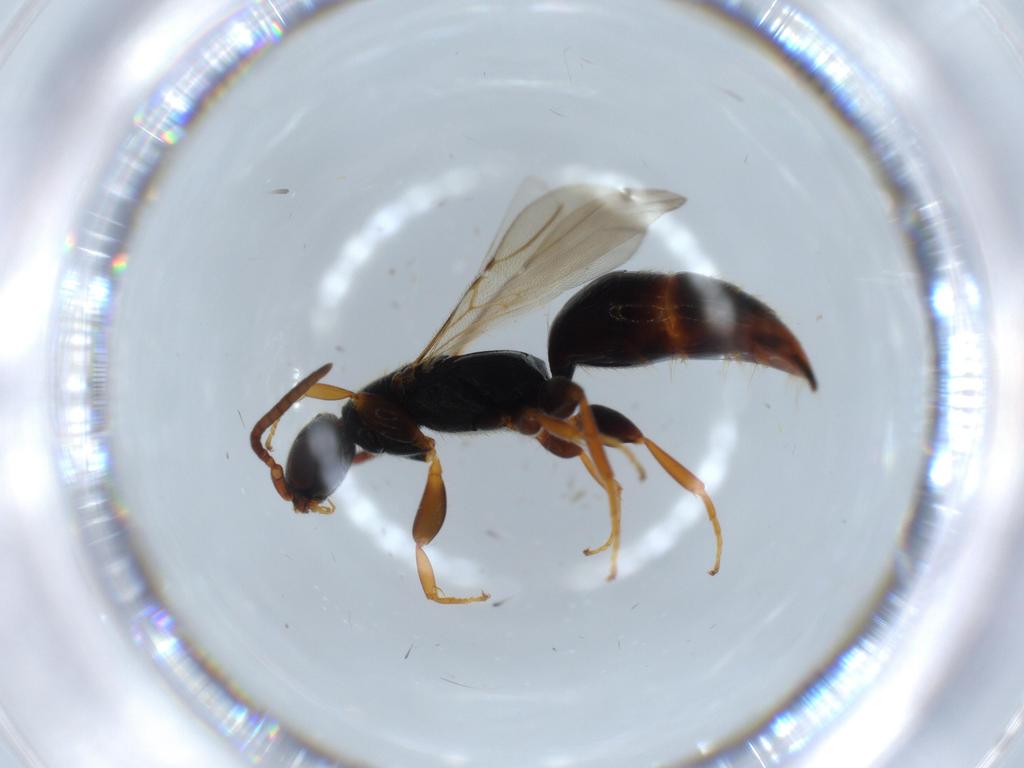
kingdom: Animalia
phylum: Arthropoda
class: Insecta
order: Hymenoptera
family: Bethylidae
